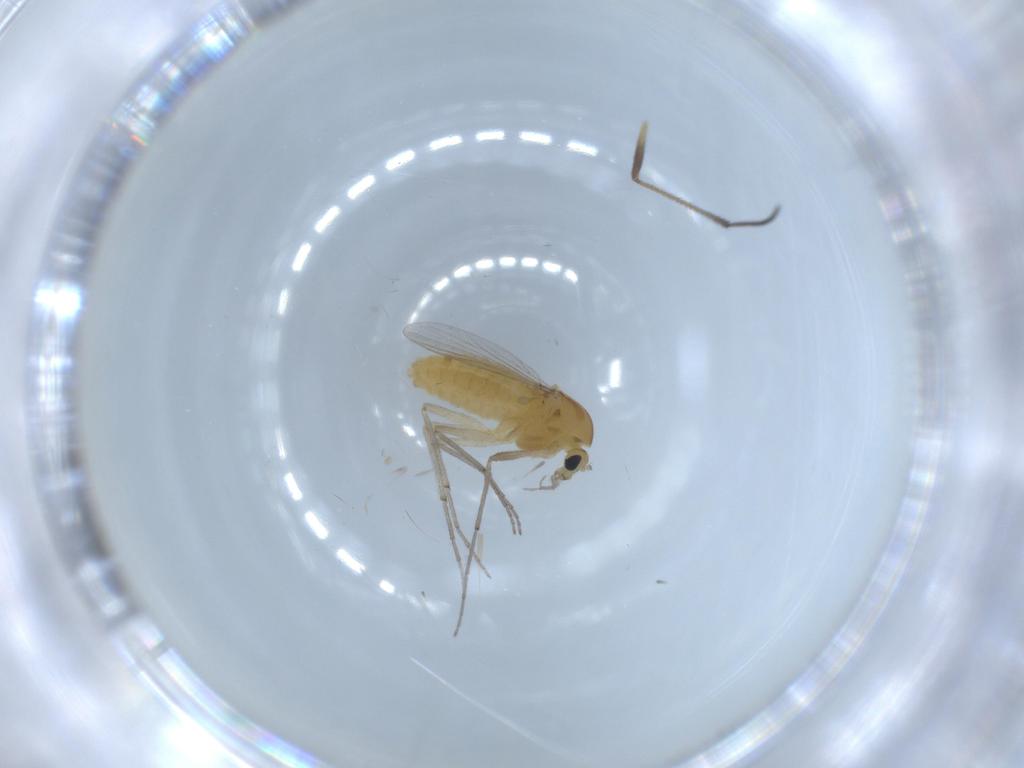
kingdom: Animalia
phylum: Arthropoda
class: Insecta
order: Diptera
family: Chironomidae
